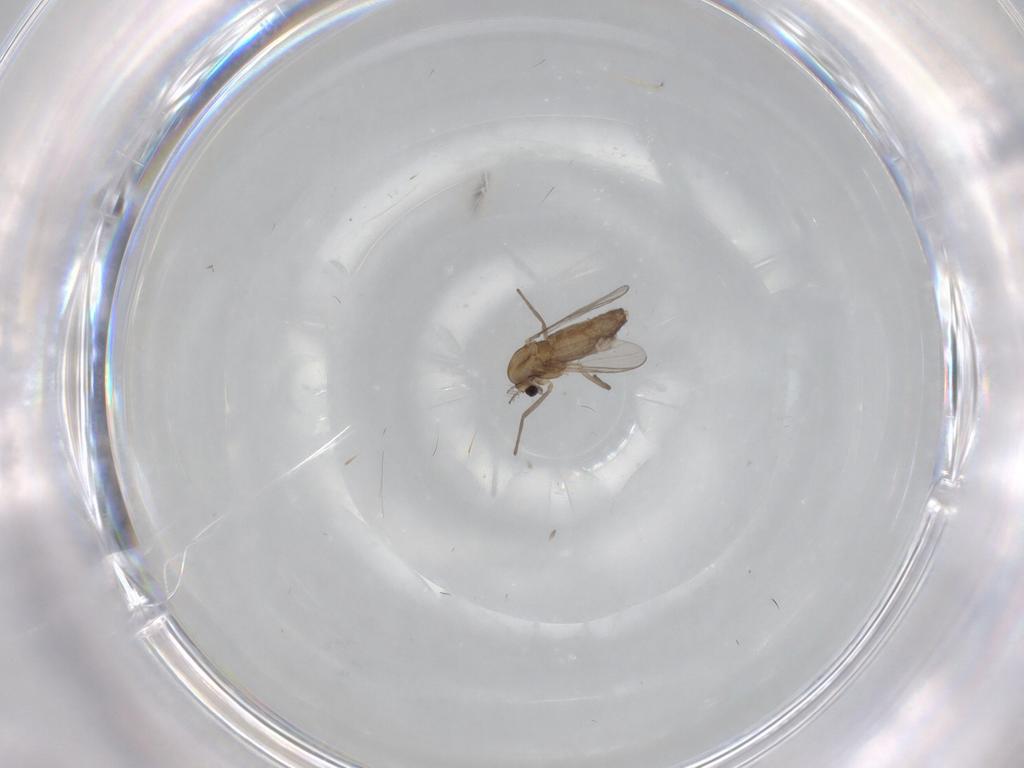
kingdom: Animalia
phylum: Arthropoda
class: Insecta
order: Diptera
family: Chironomidae
